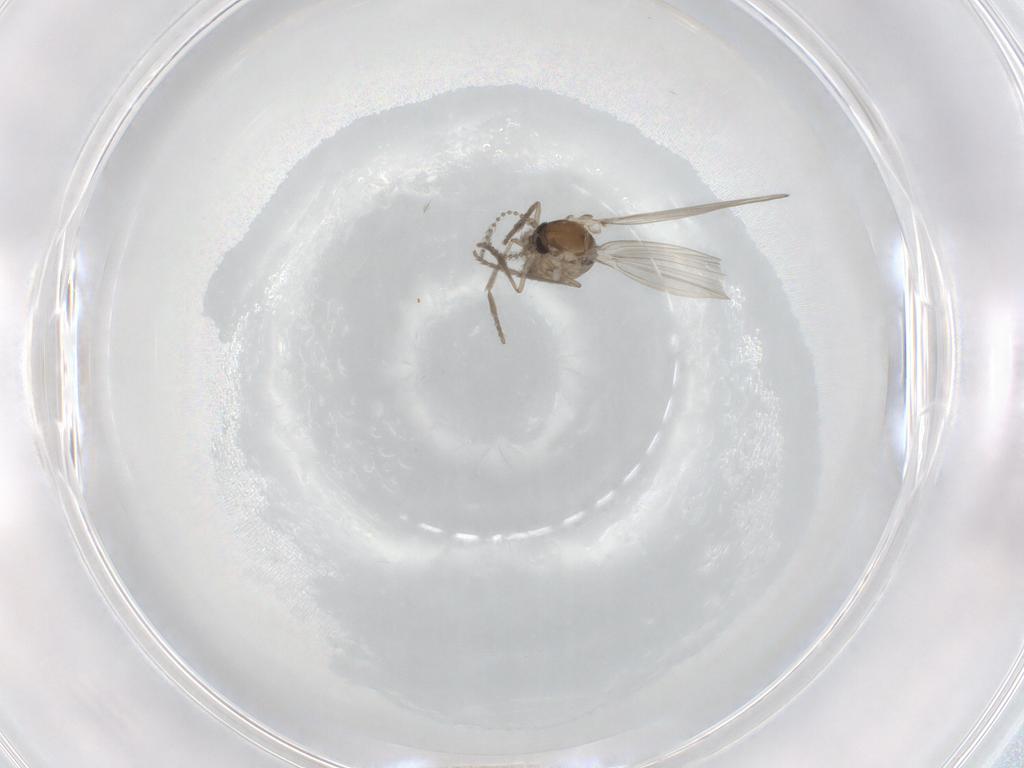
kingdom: Animalia
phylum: Arthropoda
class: Insecta
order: Diptera
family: Psychodidae
